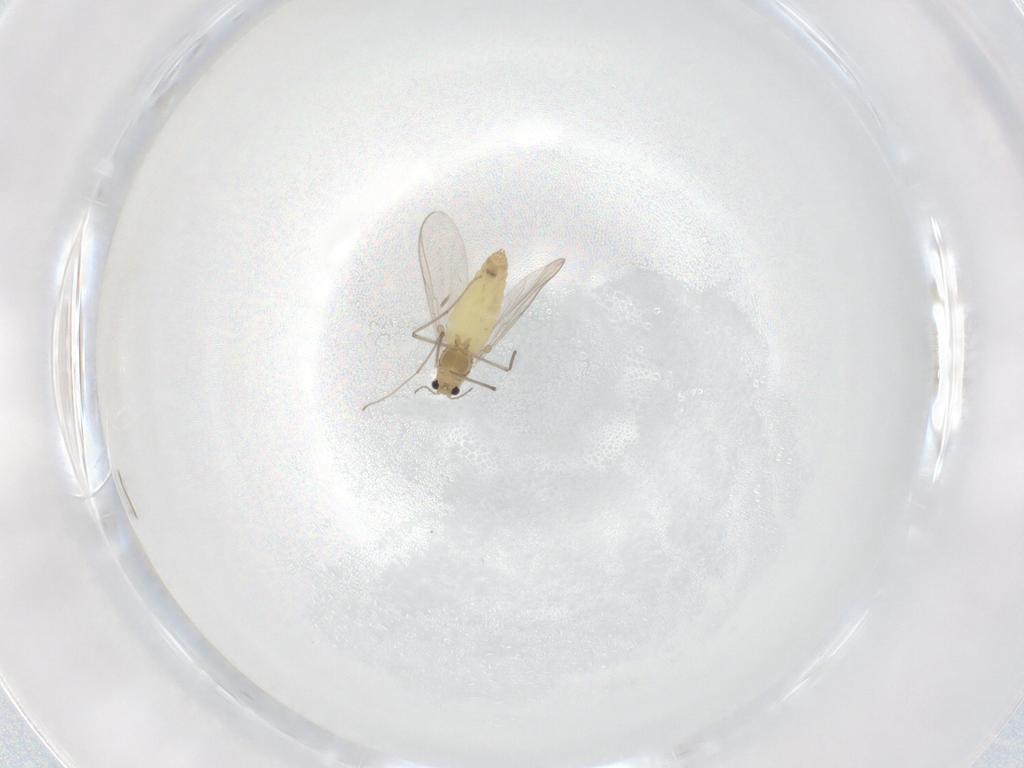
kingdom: Animalia
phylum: Arthropoda
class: Insecta
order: Diptera
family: Chironomidae
